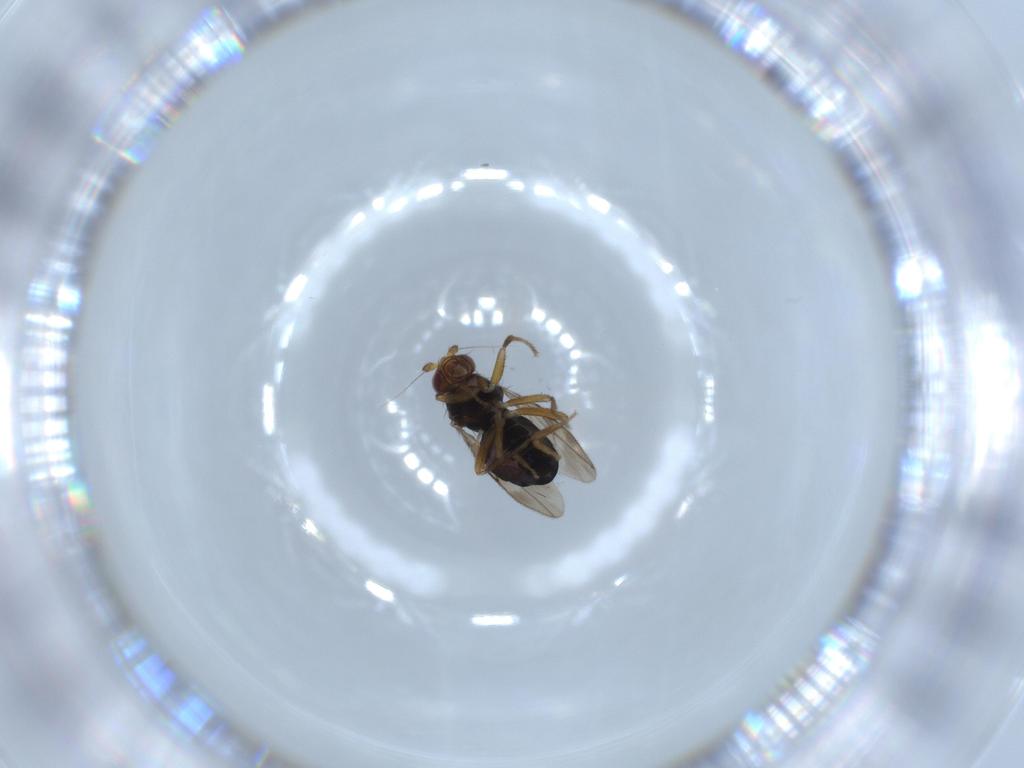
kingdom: Animalia
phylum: Arthropoda
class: Insecta
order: Diptera
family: Sphaeroceridae
